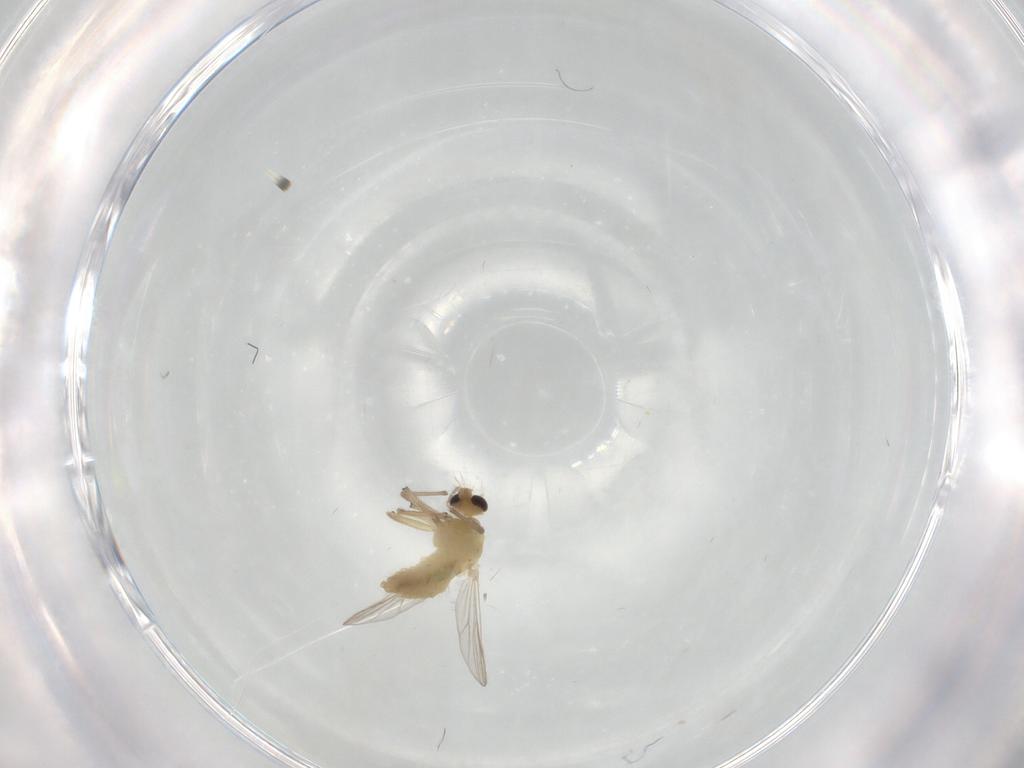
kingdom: Animalia
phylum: Arthropoda
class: Insecta
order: Diptera
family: Chironomidae
